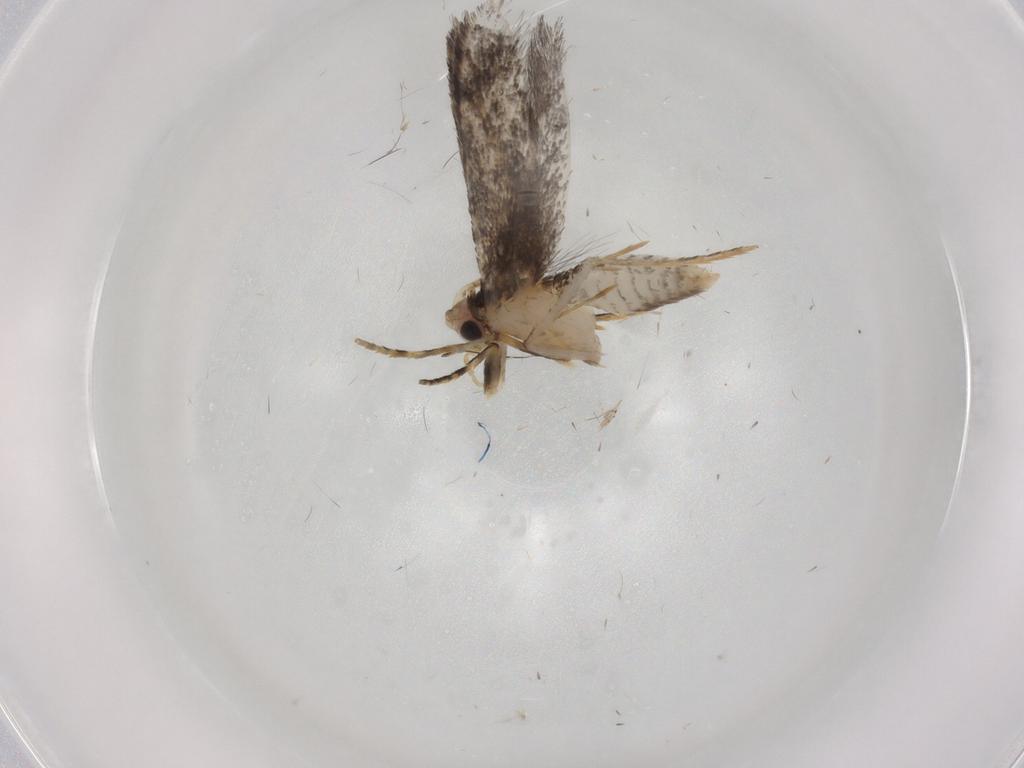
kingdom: Animalia
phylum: Arthropoda
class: Insecta
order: Lepidoptera
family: Tineidae
